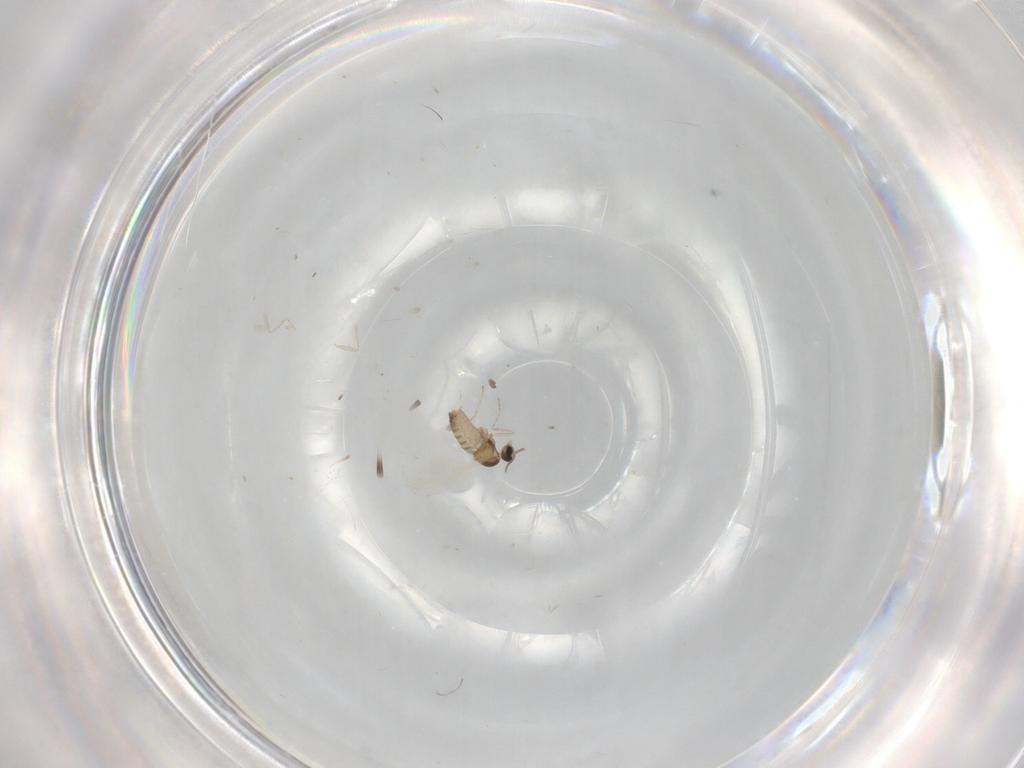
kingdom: Animalia
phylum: Arthropoda
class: Insecta
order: Diptera
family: Cecidomyiidae
